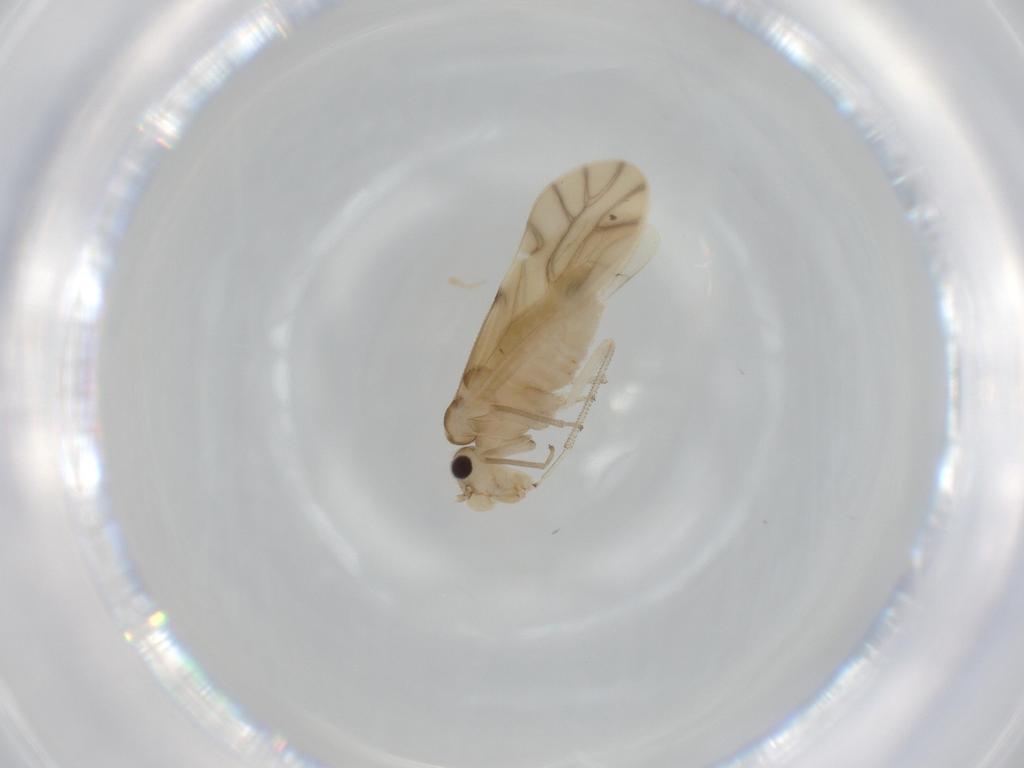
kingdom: Animalia
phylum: Arthropoda
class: Insecta
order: Psocodea
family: Caeciliusidae
